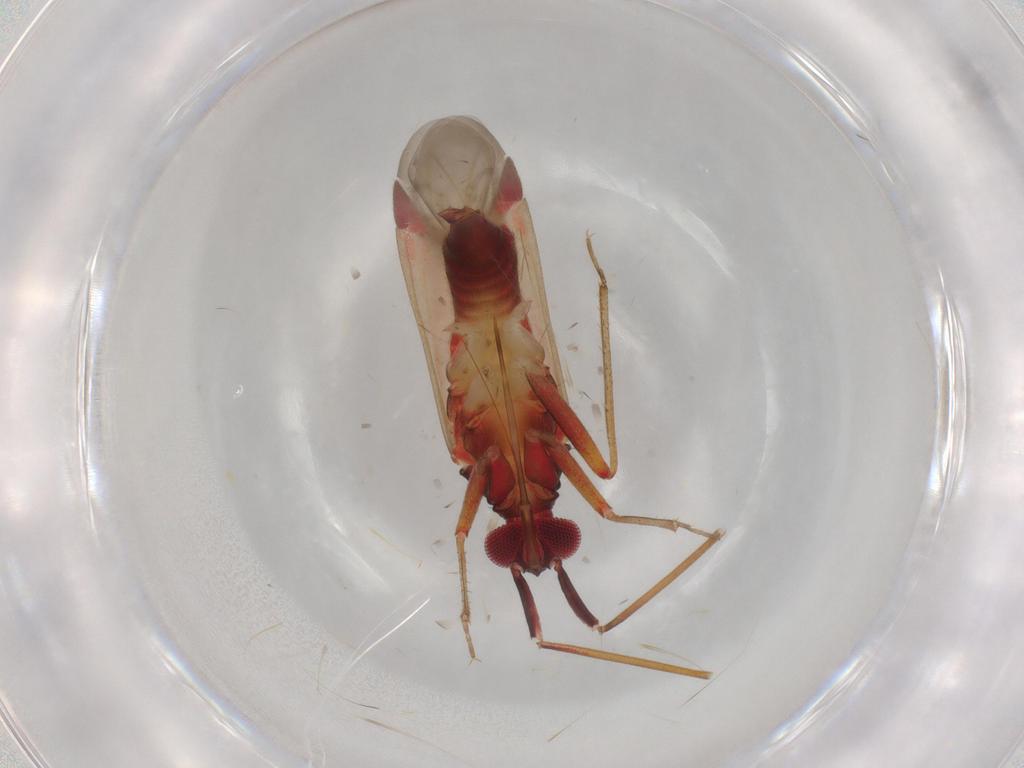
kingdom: Animalia
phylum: Arthropoda
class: Insecta
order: Hemiptera
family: Miridae
